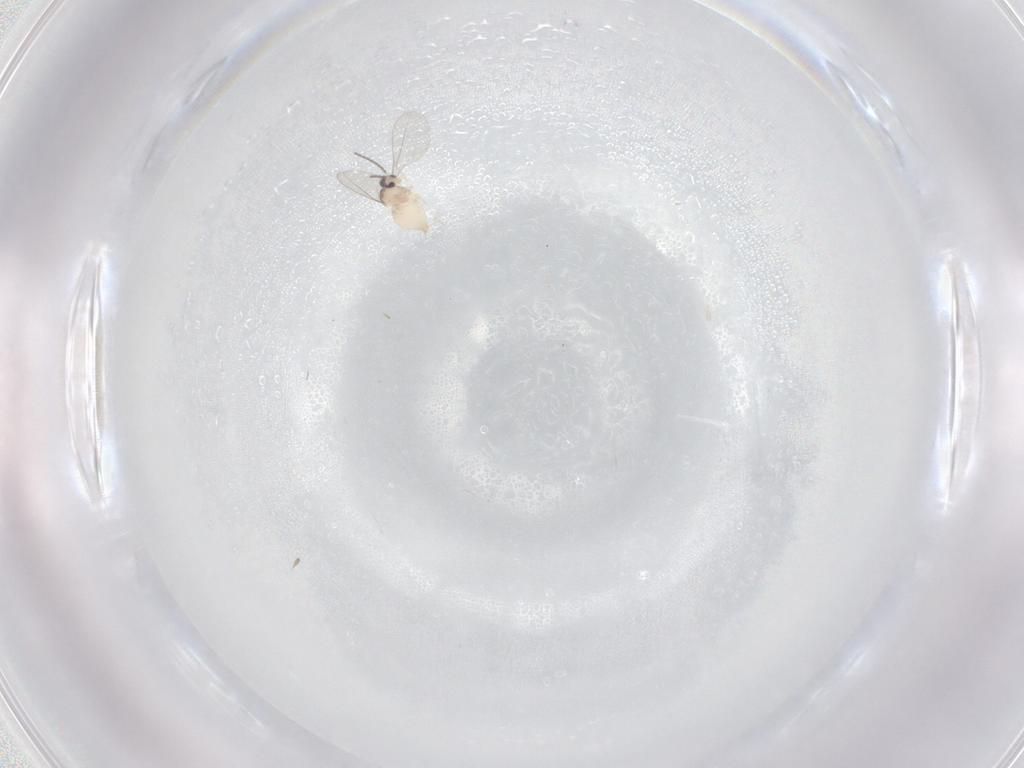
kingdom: Animalia
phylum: Arthropoda
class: Insecta
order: Diptera
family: Cecidomyiidae
